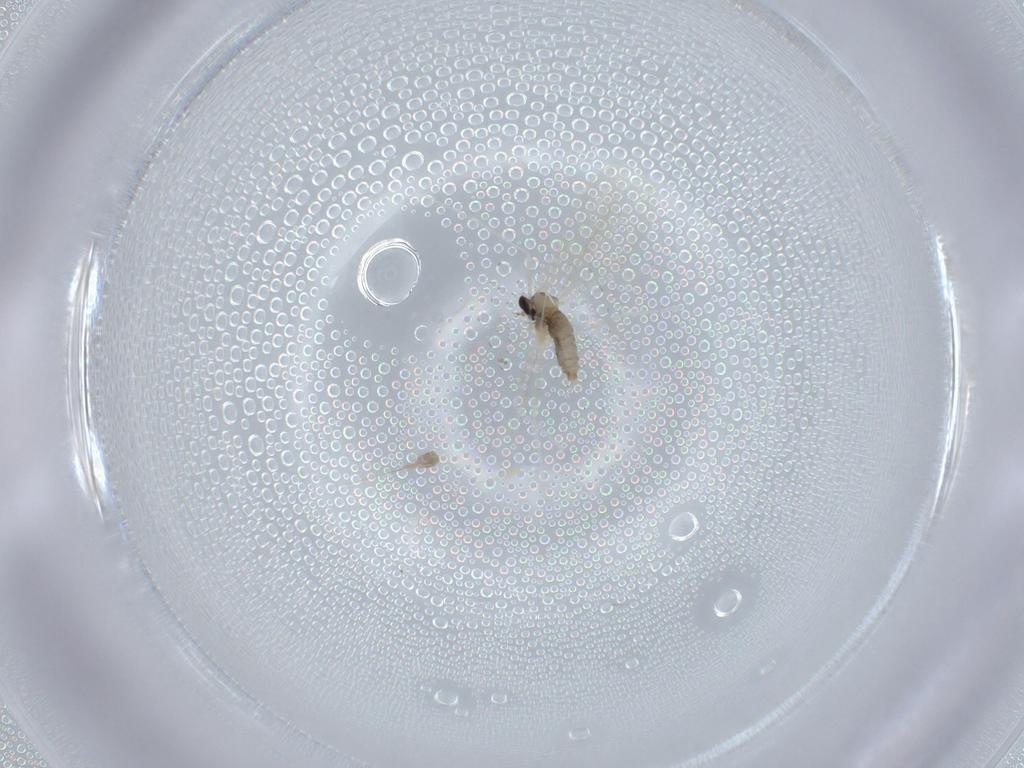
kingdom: Animalia
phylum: Arthropoda
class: Insecta
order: Diptera
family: Cecidomyiidae
